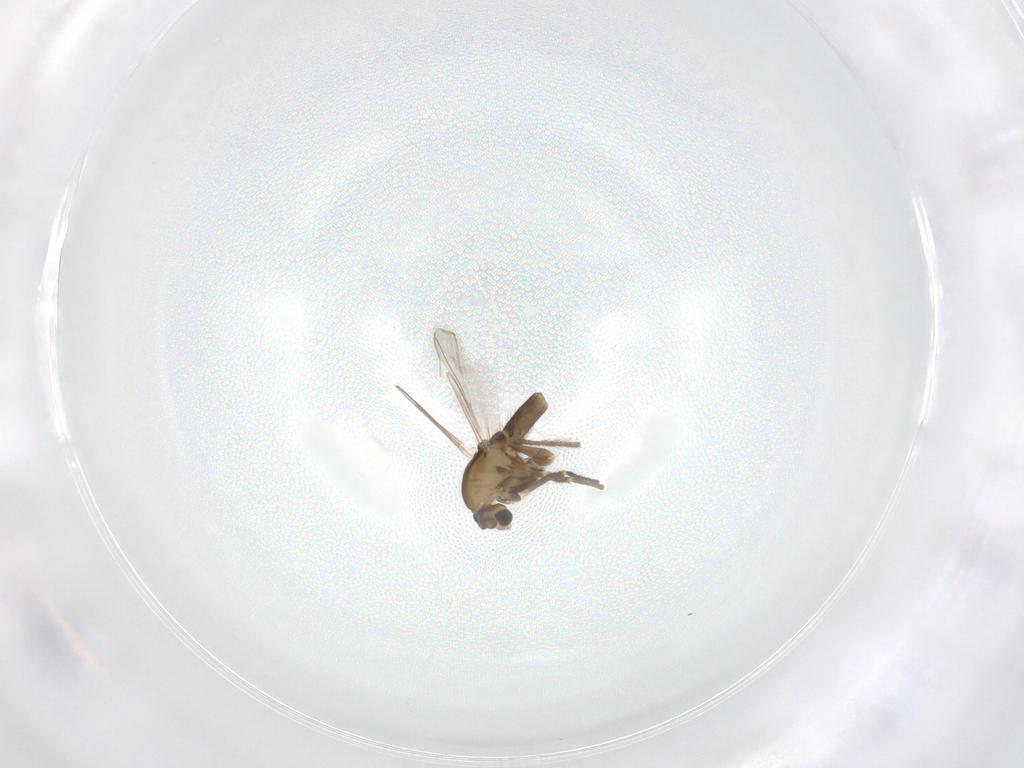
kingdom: Animalia
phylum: Arthropoda
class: Insecta
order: Diptera
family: Chironomidae
